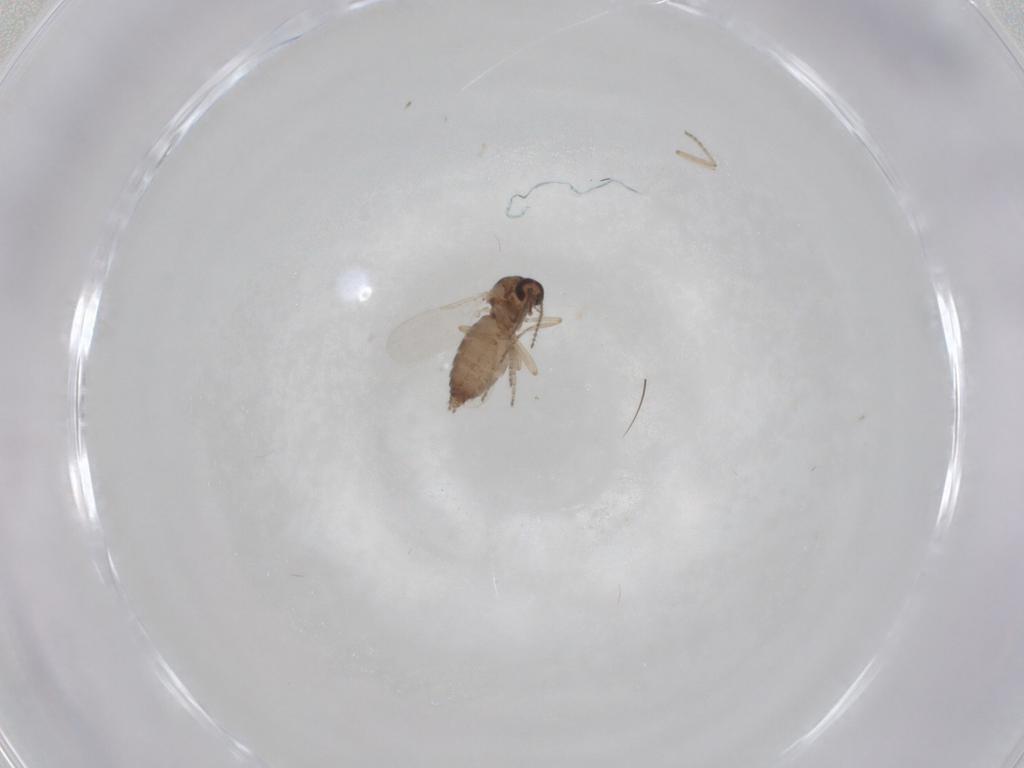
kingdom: Animalia
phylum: Arthropoda
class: Insecta
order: Diptera
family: Ceratopogonidae
